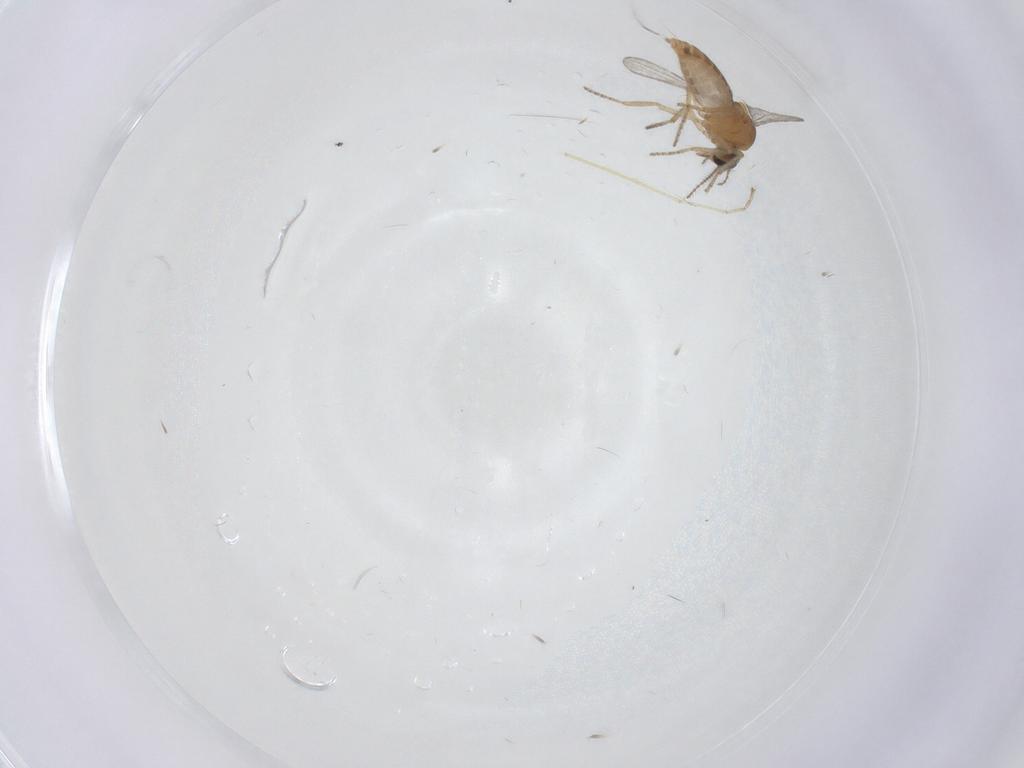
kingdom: Animalia
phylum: Arthropoda
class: Insecta
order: Diptera
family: Ceratopogonidae
